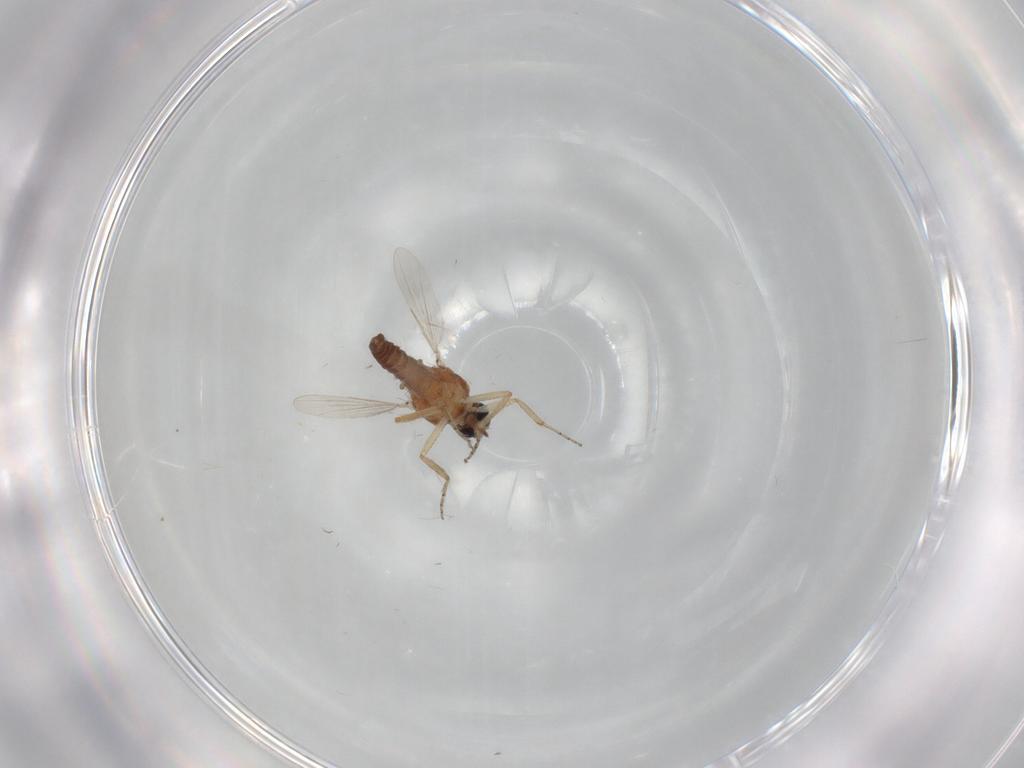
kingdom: Animalia
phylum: Arthropoda
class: Insecta
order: Diptera
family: Ceratopogonidae
